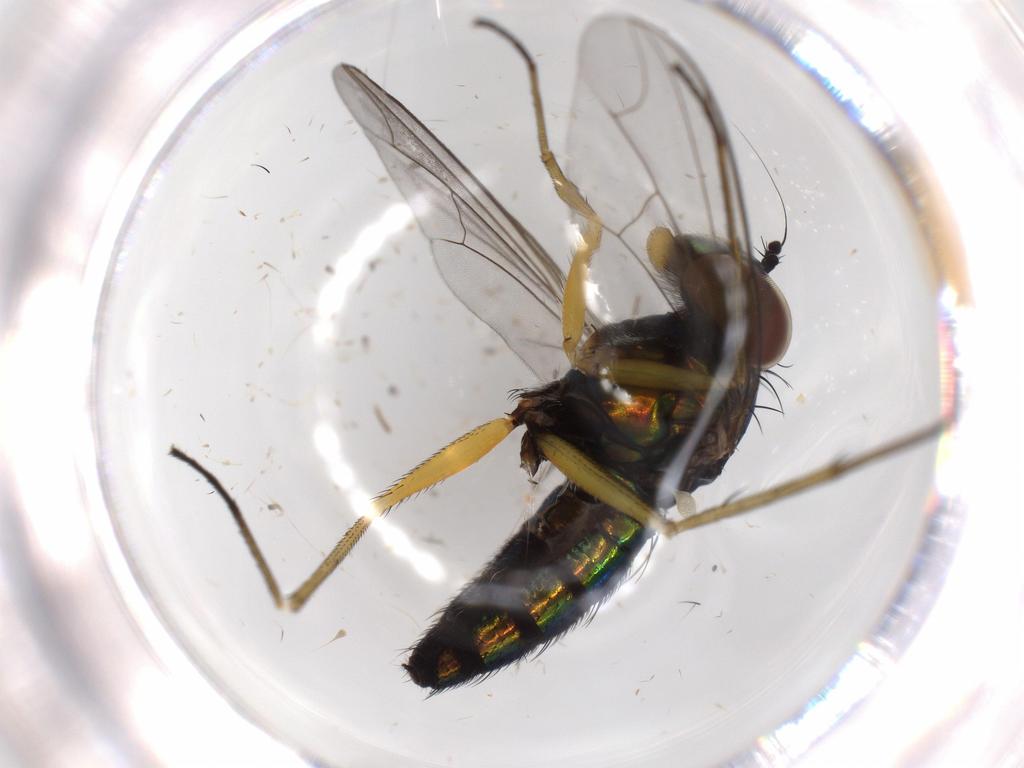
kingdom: Animalia
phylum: Arthropoda
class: Insecta
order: Diptera
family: Dolichopodidae
